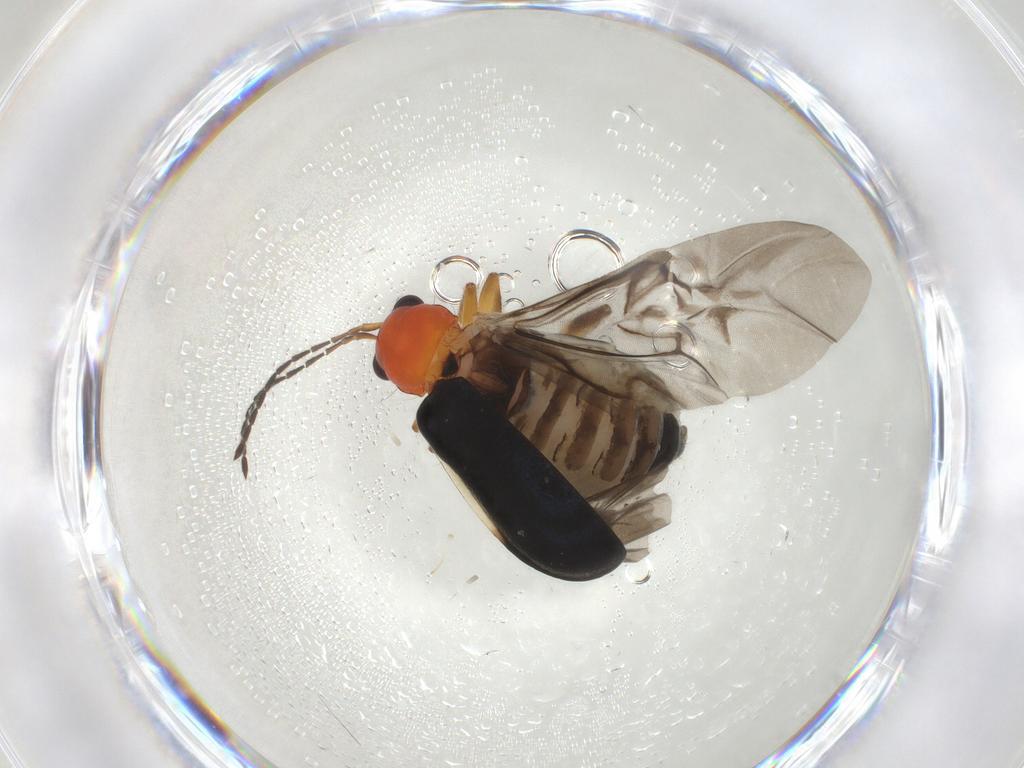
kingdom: Animalia
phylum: Arthropoda
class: Insecta
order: Coleoptera
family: Chrysomelidae
